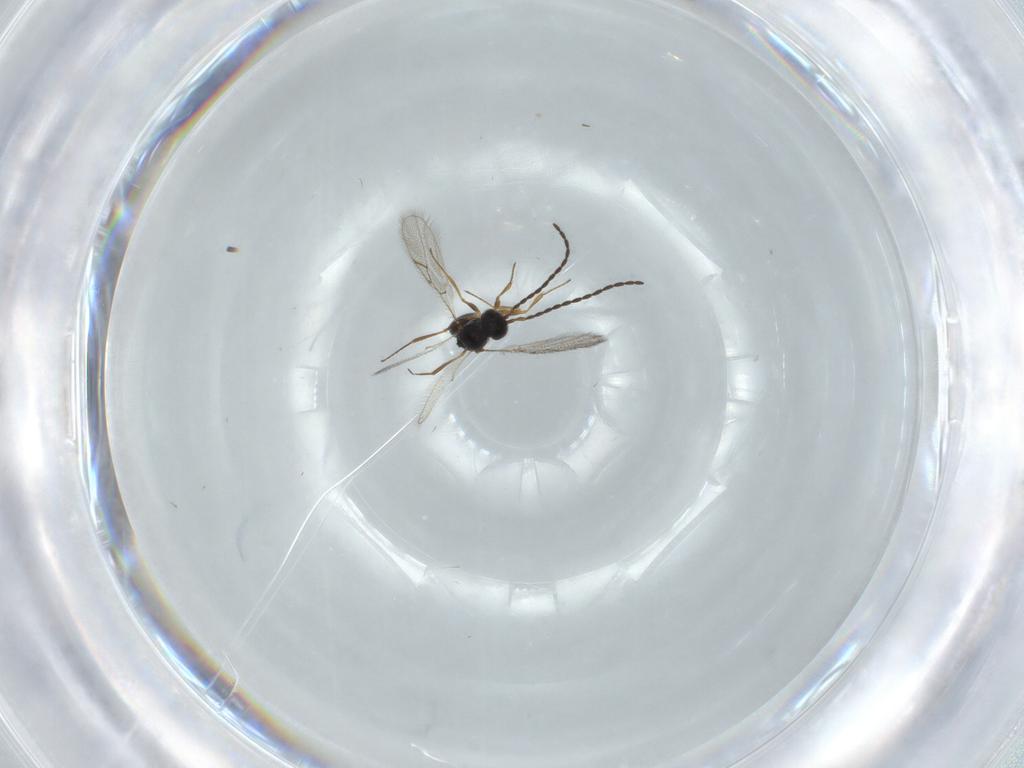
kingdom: Animalia
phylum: Arthropoda
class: Insecta
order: Hymenoptera
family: Figitidae
